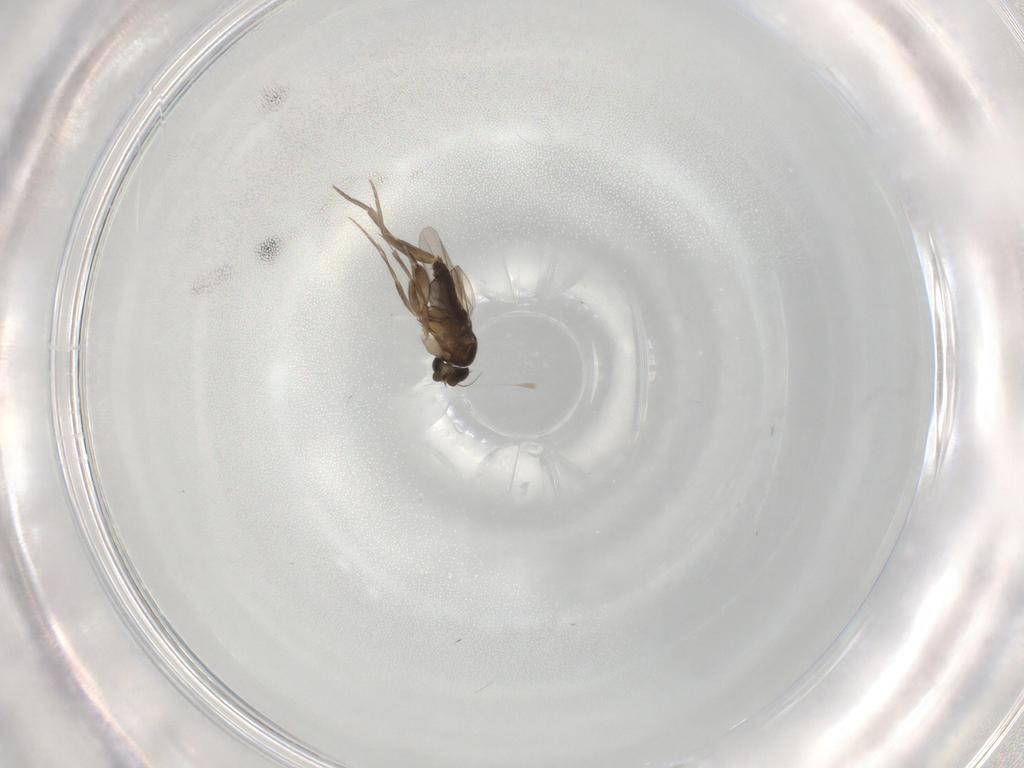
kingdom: Animalia
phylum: Arthropoda
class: Insecta
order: Diptera
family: Phoridae
